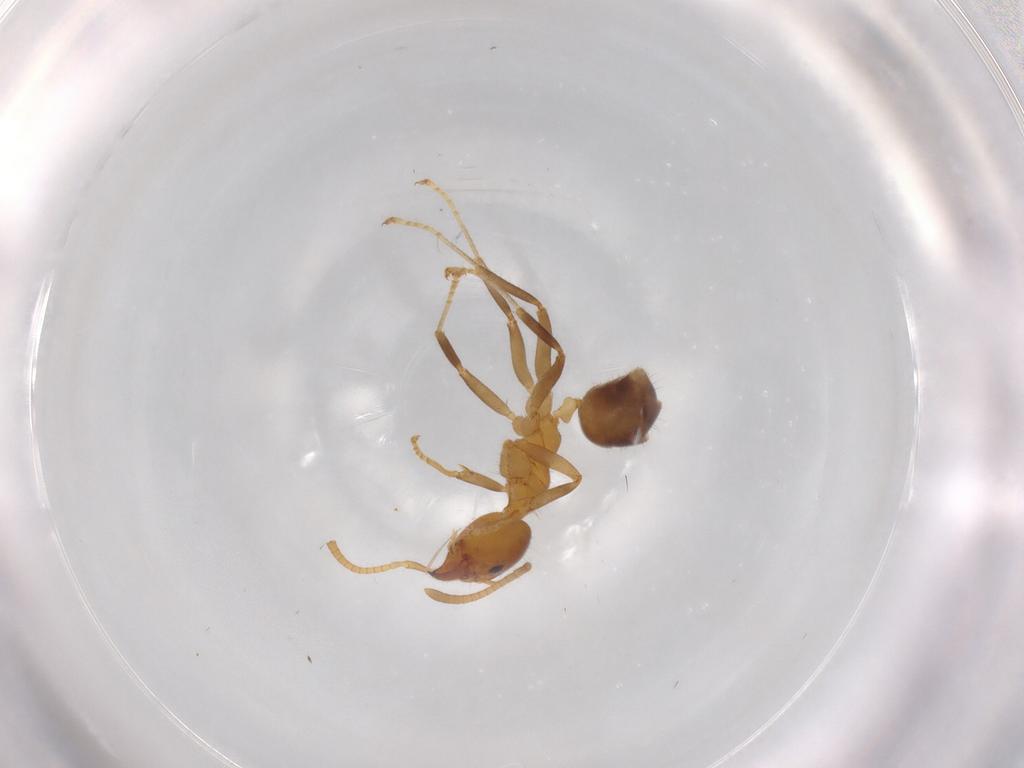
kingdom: Animalia
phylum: Arthropoda
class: Insecta
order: Hymenoptera
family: Formicidae
